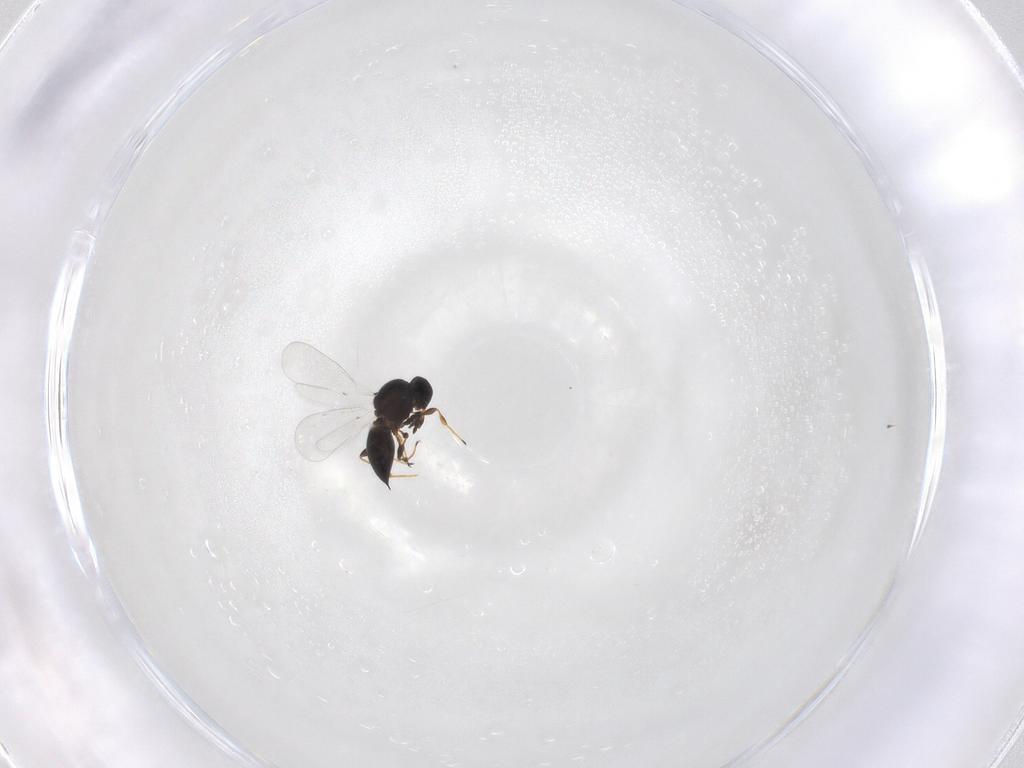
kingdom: Animalia
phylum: Arthropoda
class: Insecta
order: Hymenoptera
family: Platygastridae
